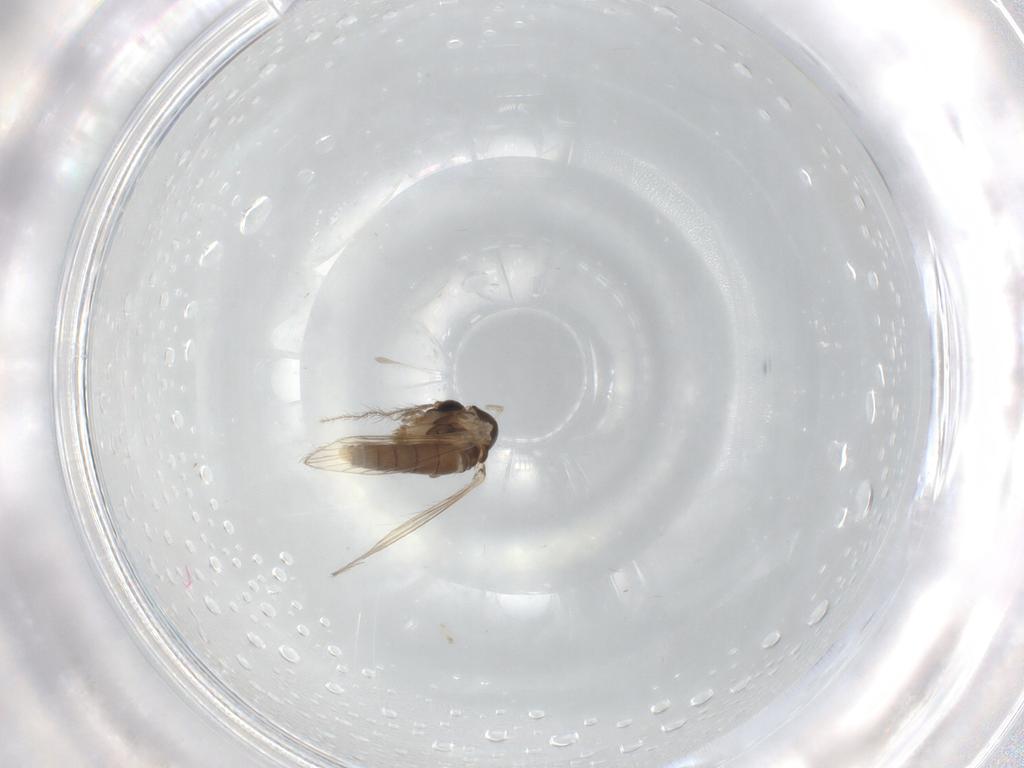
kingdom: Animalia
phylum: Arthropoda
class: Insecta
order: Diptera
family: Psychodidae
